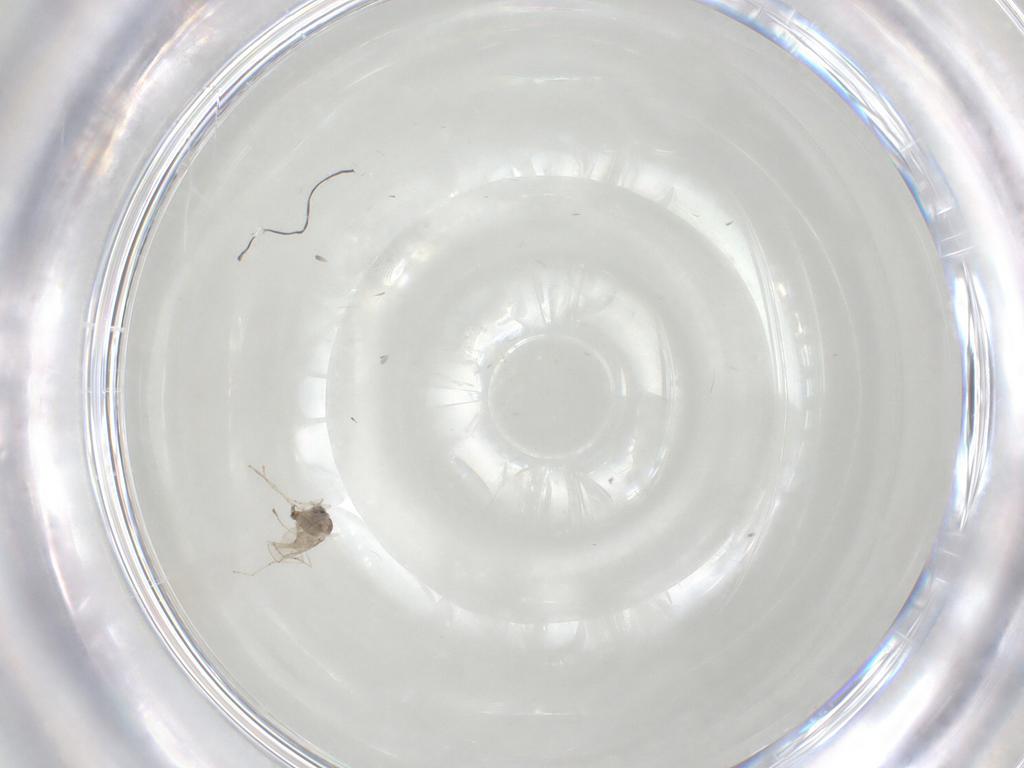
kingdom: Animalia
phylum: Arthropoda
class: Insecta
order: Diptera
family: Cecidomyiidae
